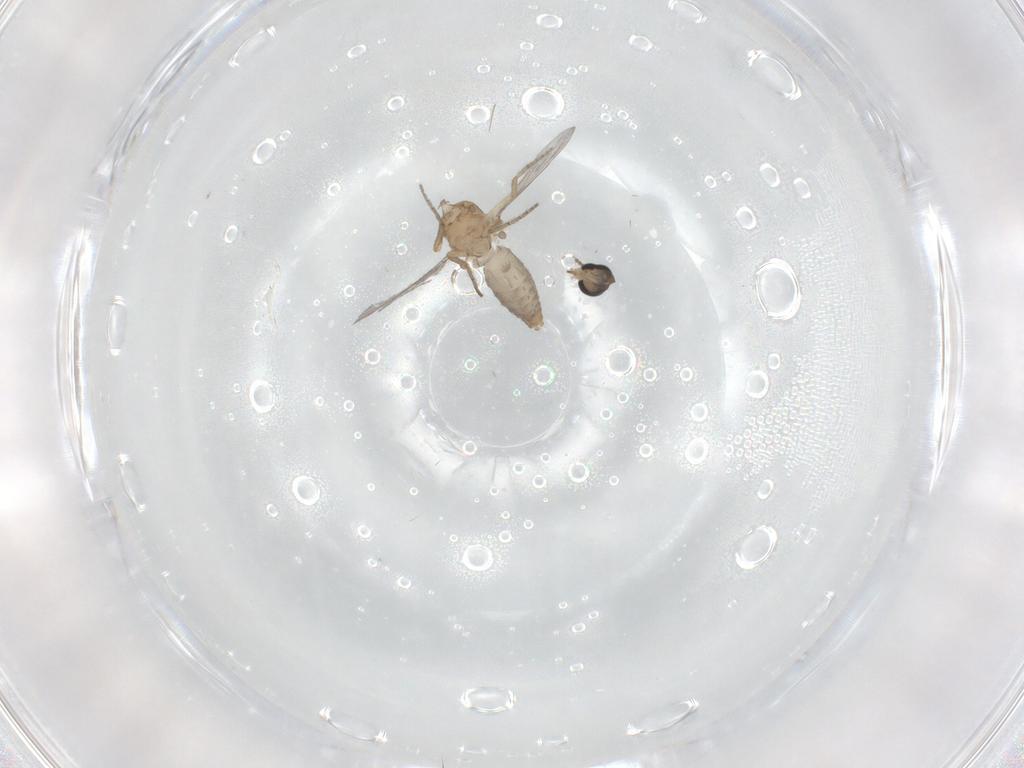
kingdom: Animalia
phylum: Arthropoda
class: Insecta
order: Diptera
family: Ceratopogonidae
